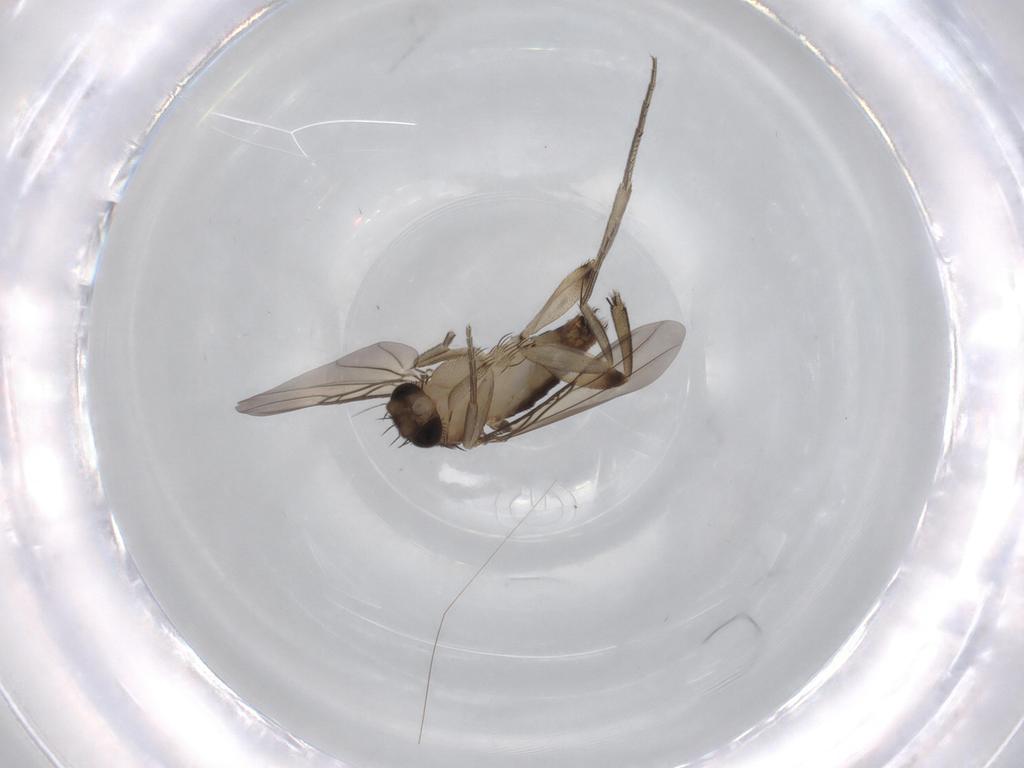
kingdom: Animalia
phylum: Arthropoda
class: Insecta
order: Diptera
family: Phoridae
